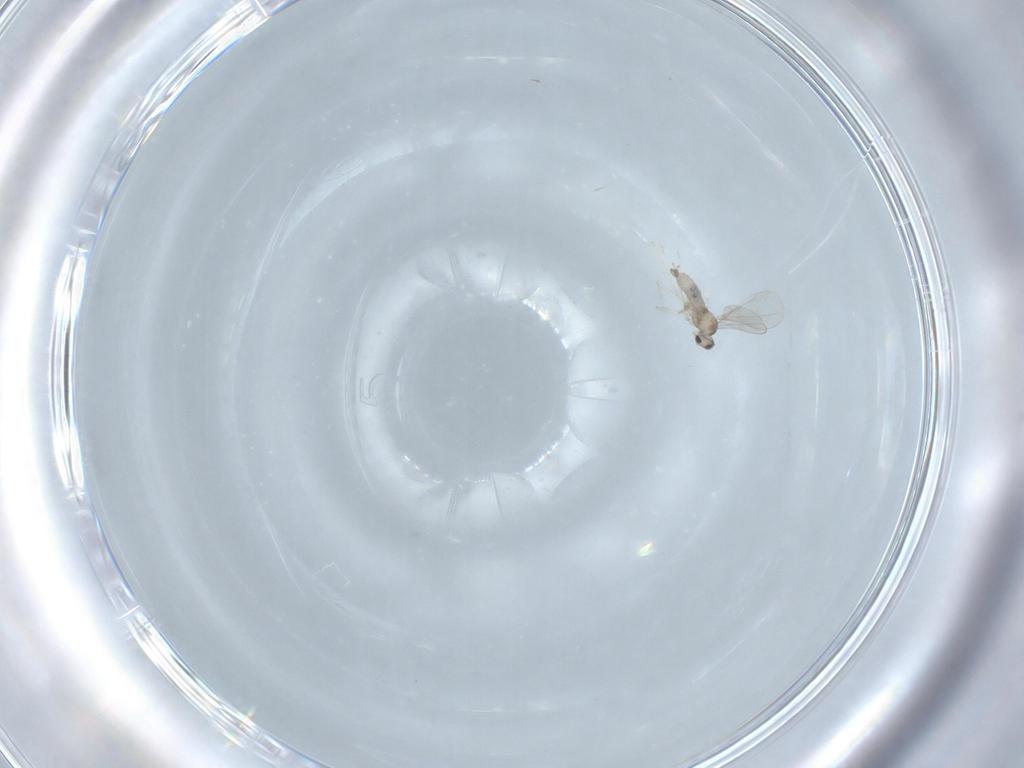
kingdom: Animalia
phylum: Arthropoda
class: Insecta
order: Diptera
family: Cecidomyiidae
